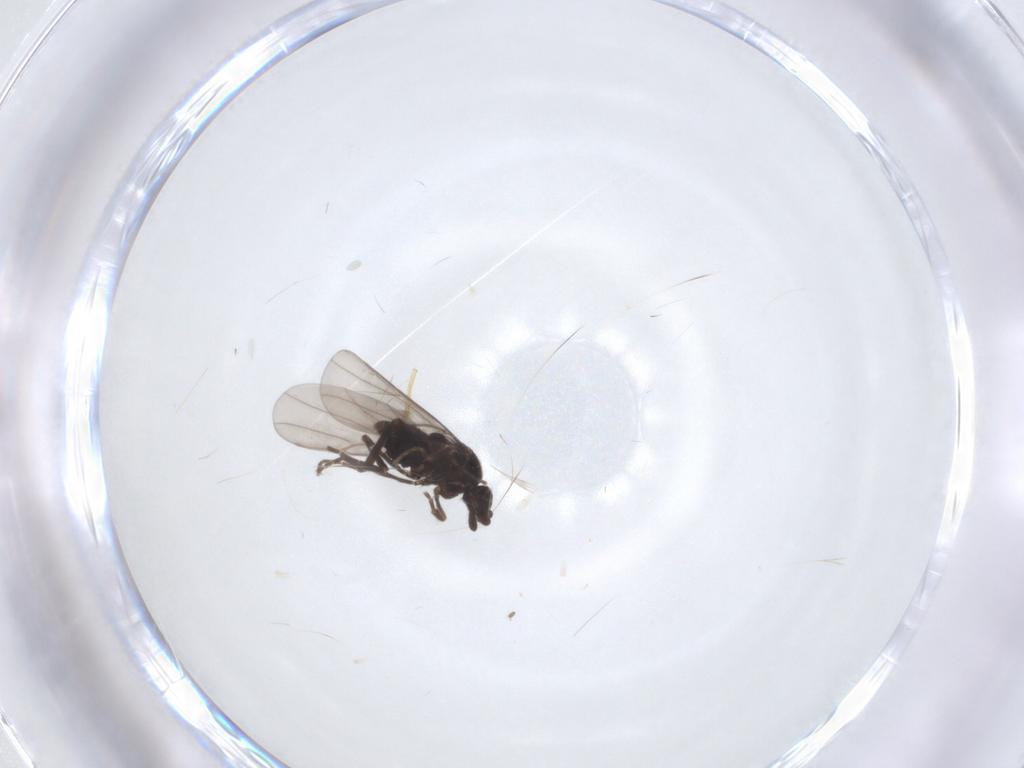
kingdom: Animalia
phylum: Arthropoda
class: Insecta
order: Diptera
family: Phoridae
